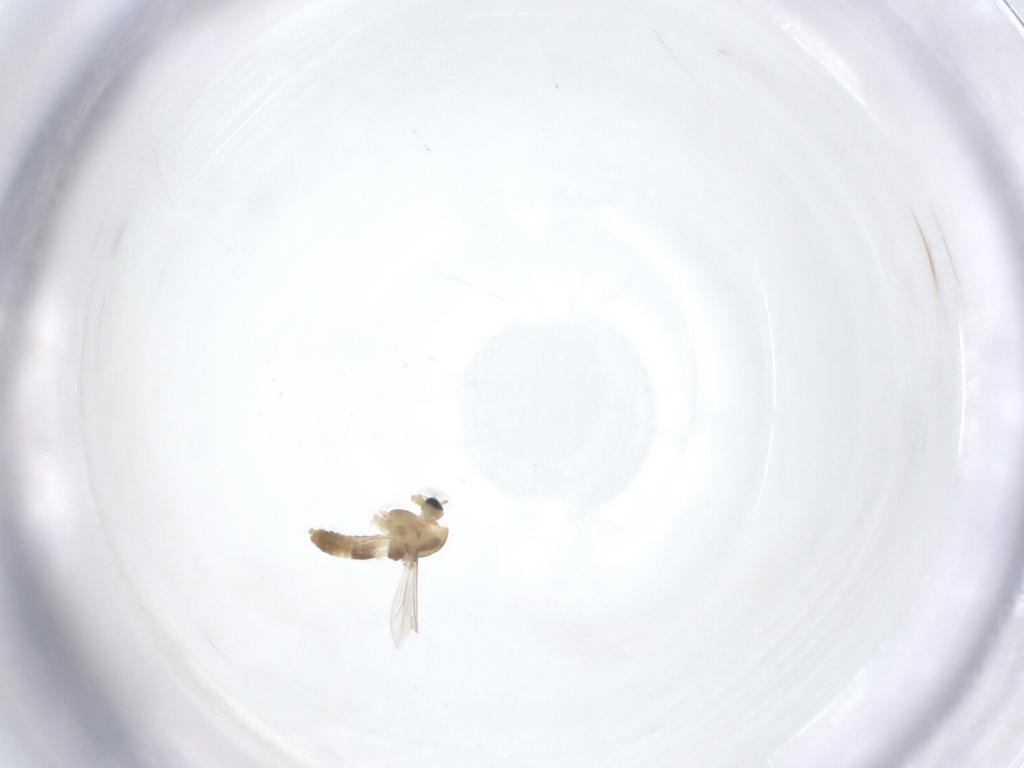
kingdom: Animalia
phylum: Arthropoda
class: Insecta
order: Diptera
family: Chironomidae
